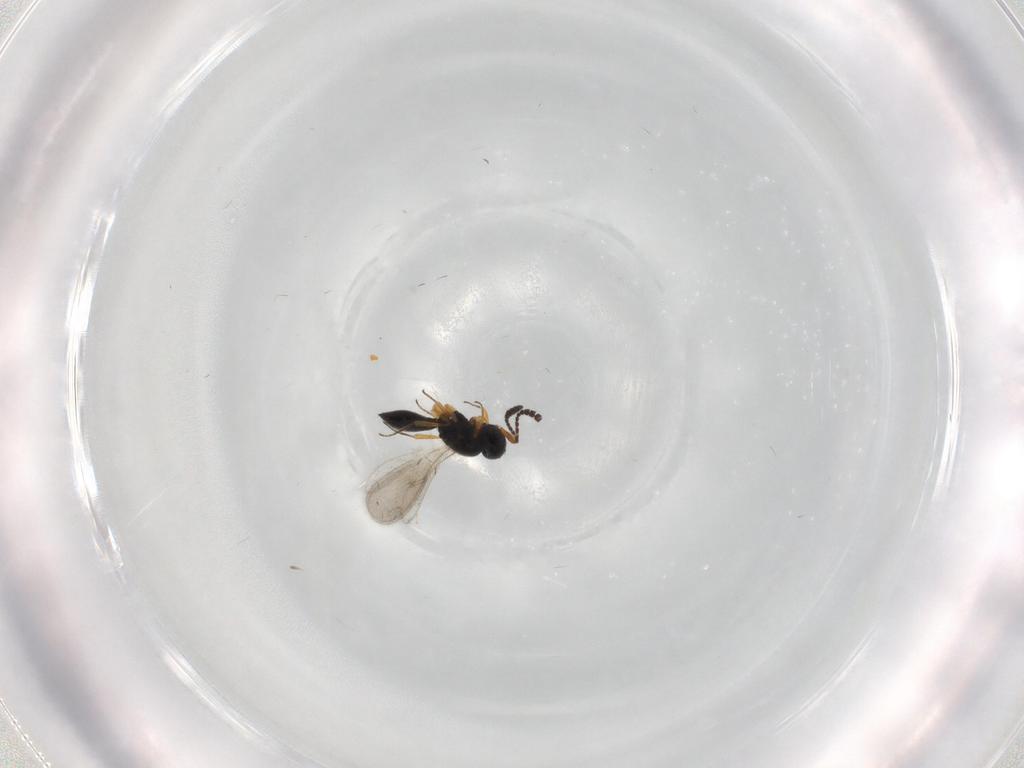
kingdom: Animalia
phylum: Arthropoda
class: Insecta
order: Hymenoptera
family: Scelionidae
